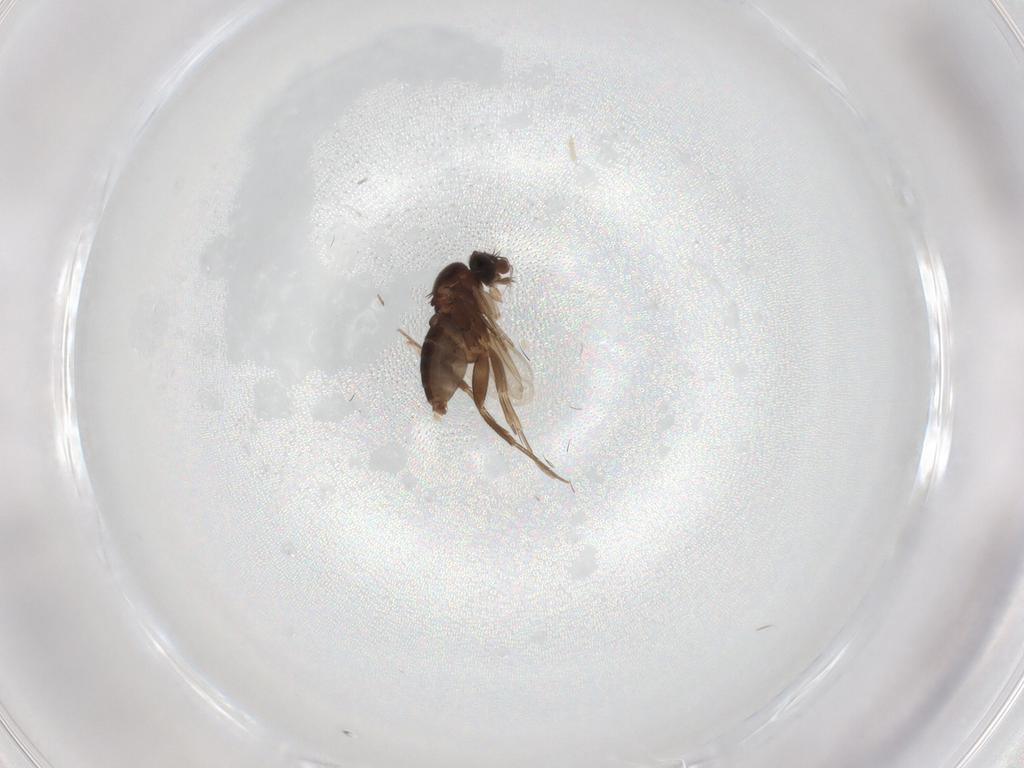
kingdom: Animalia
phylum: Arthropoda
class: Insecta
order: Diptera
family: Phoridae
